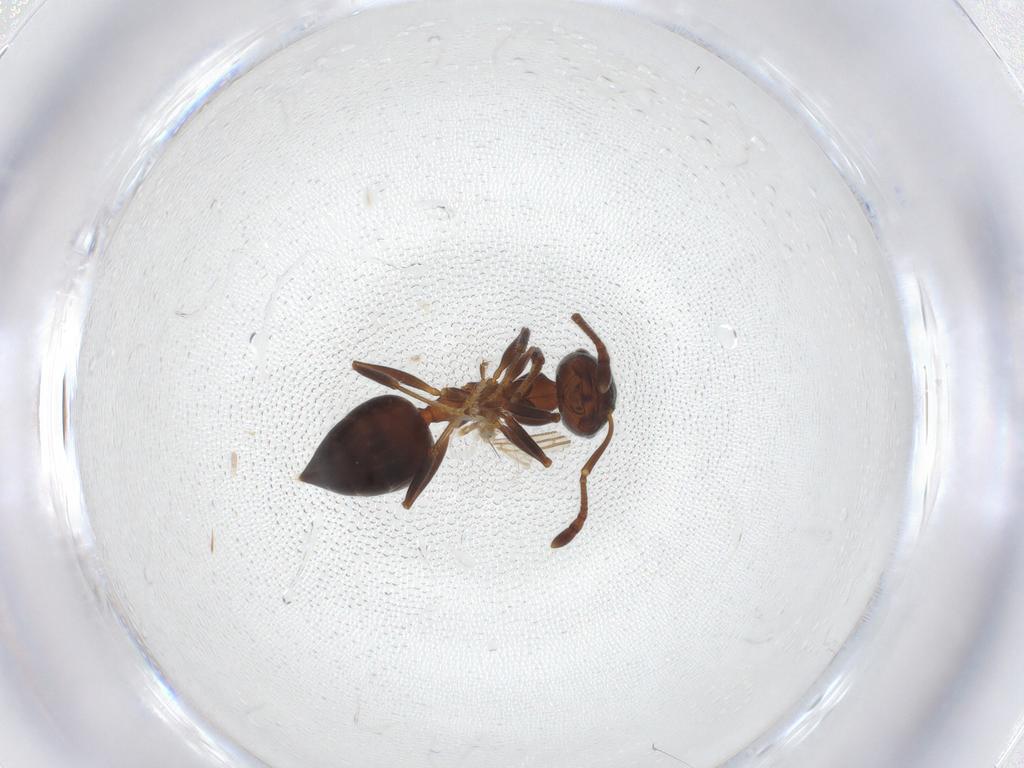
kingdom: Animalia
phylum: Arthropoda
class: Insecta
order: Hymenoptera
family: Formicidae
